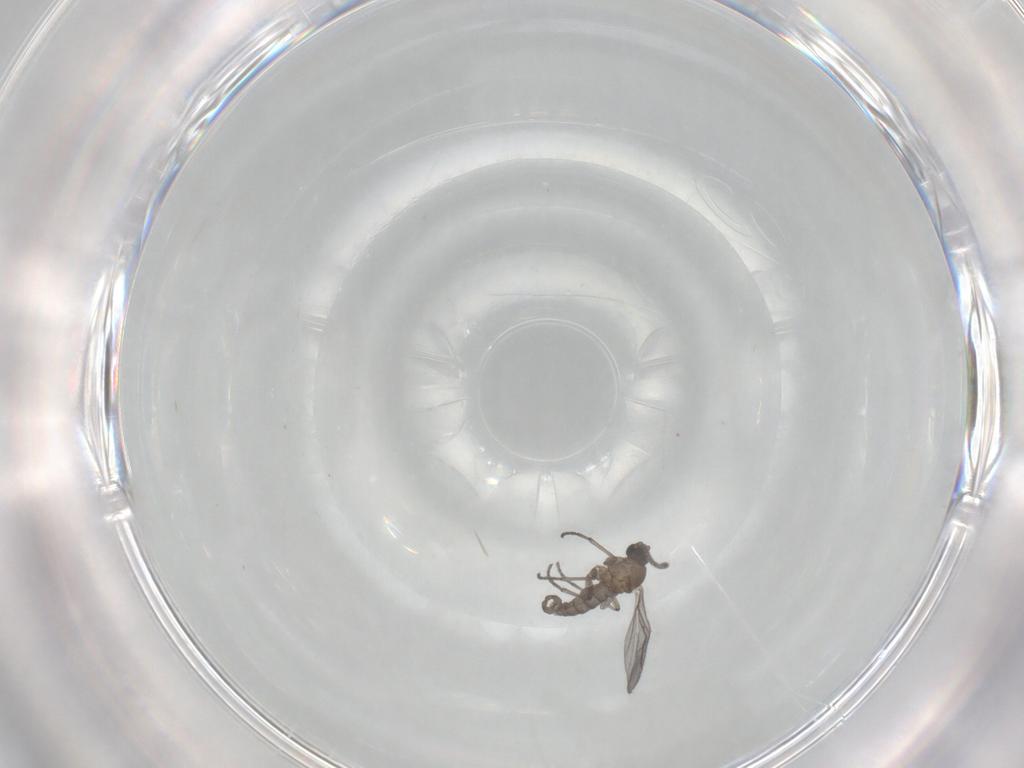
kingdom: Animalia
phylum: Arthropoda
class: Insecta
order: Diptera
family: Sciaridae
